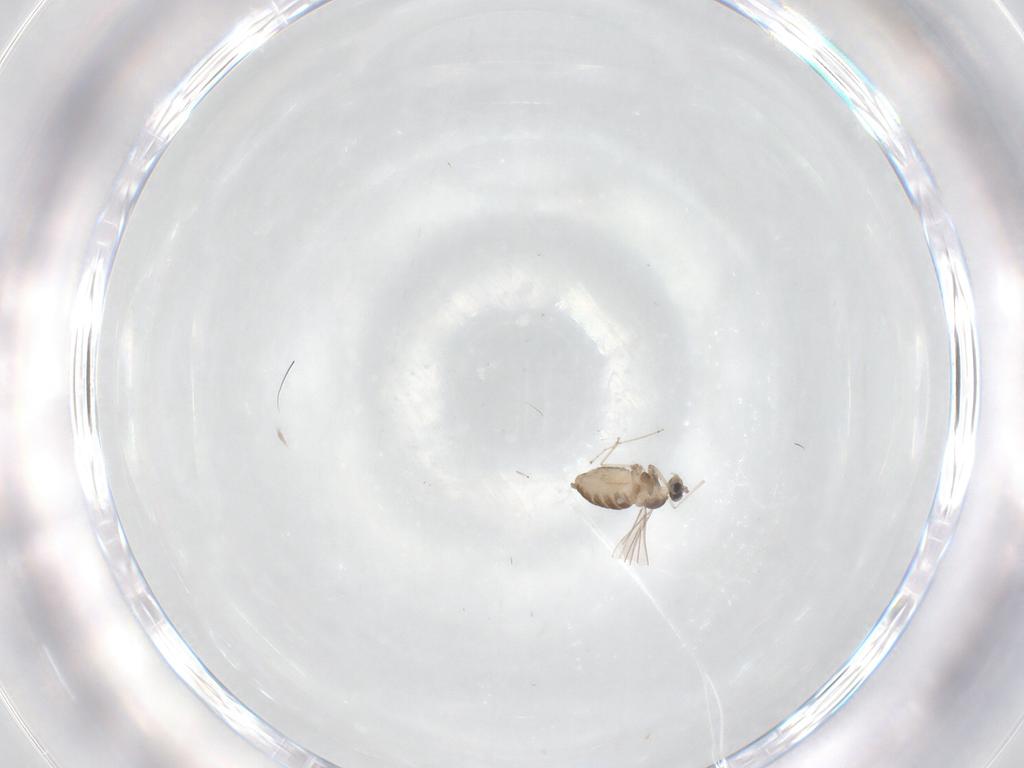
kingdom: Animalia
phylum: Arthropoda
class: Insecta
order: Diptera
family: Cecidomyiidae
